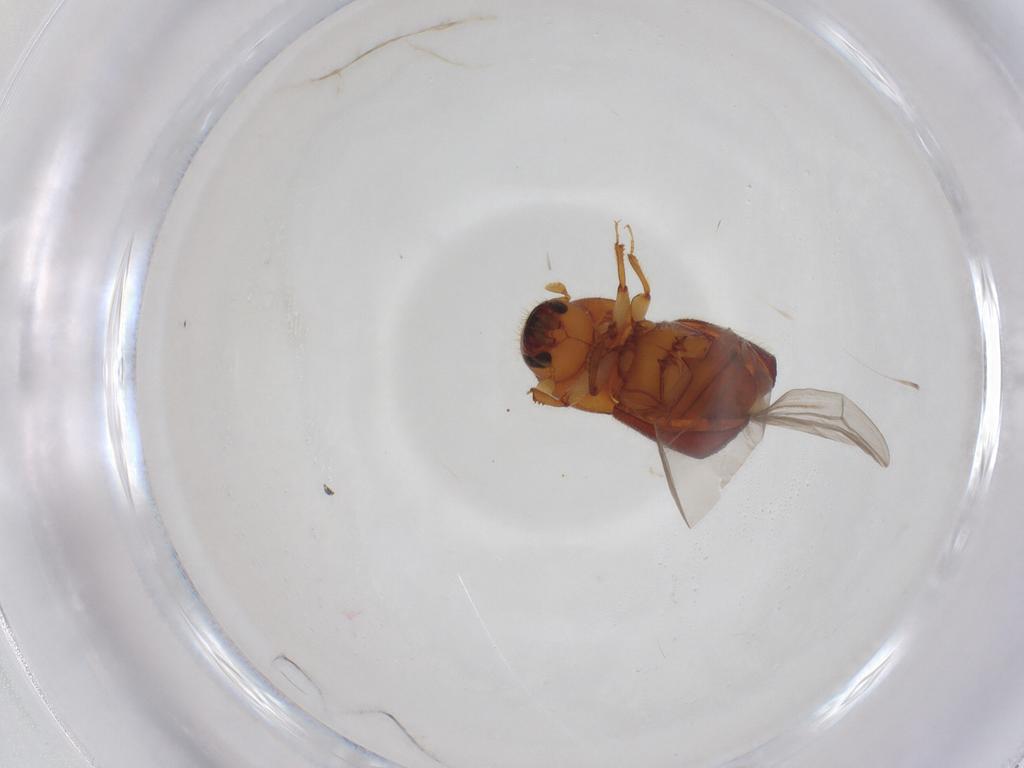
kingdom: Animalia
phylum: Arthropoda
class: Insecta
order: Coleoptera
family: Curculionidae
